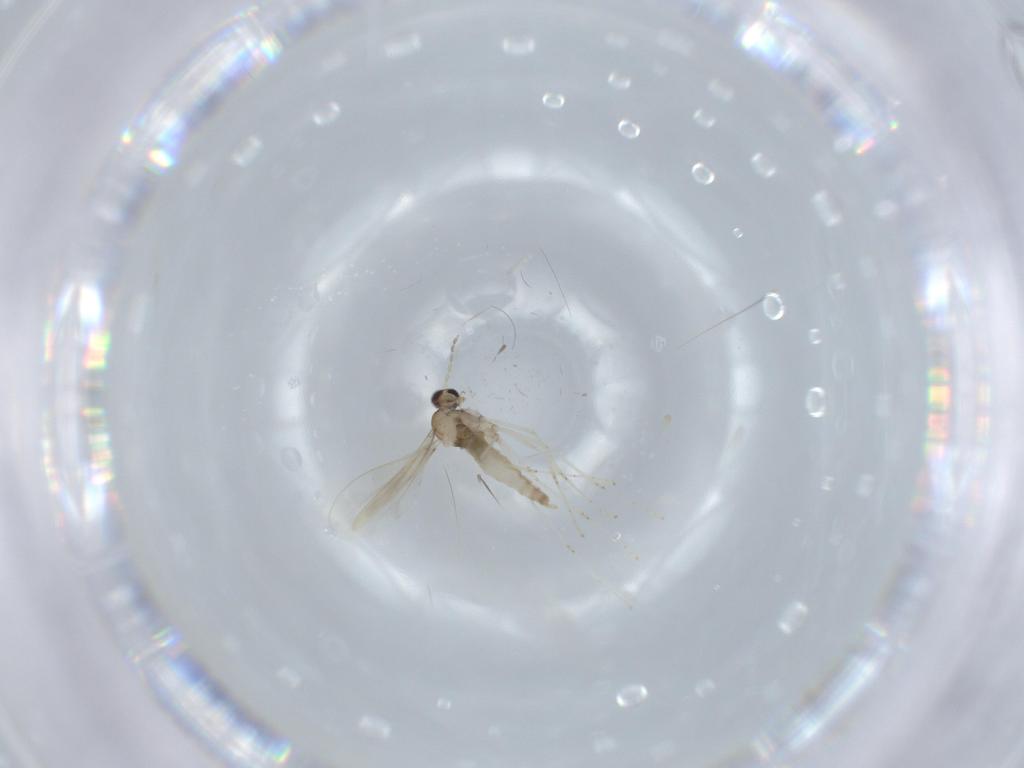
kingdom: Animalia
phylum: Arthropoda
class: Insecta
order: Diptera
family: Cecidomyiidae
